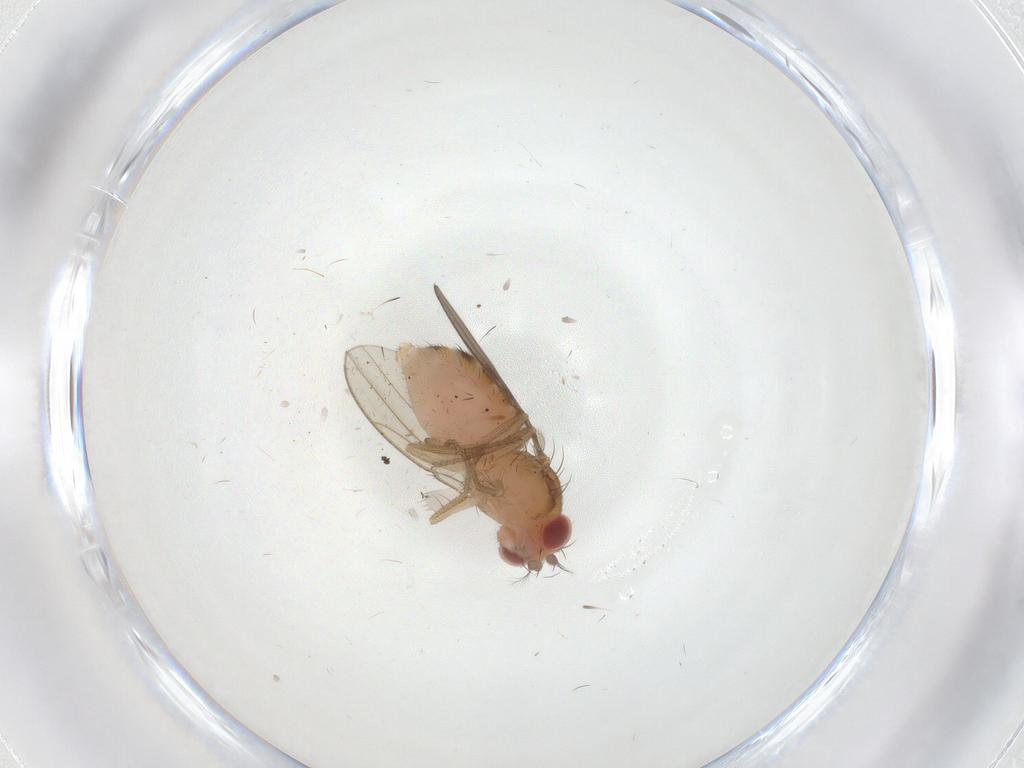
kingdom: Animalia
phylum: Arthropoda
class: Insecta
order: Diptera
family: Drosophilidae
